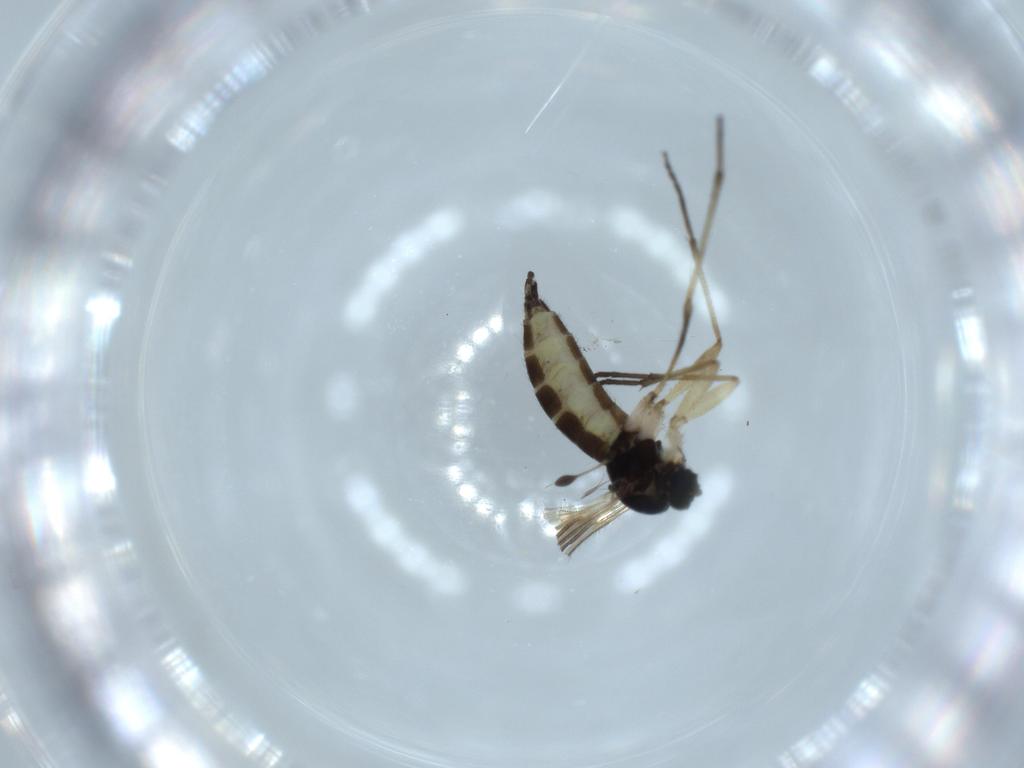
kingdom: Animalia
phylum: Arthropoda
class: Insecta
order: Diptera
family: Sciaridae
